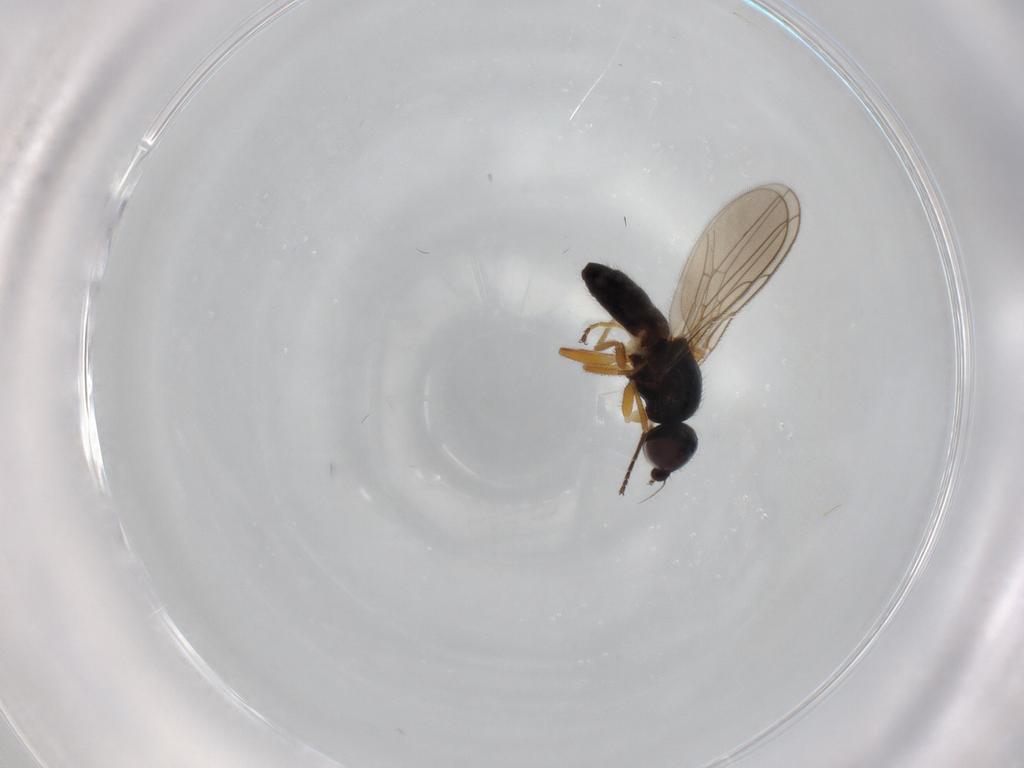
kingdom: Animalia
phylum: Arthropoda
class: Insecta
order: Diptera
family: Chloropidae
